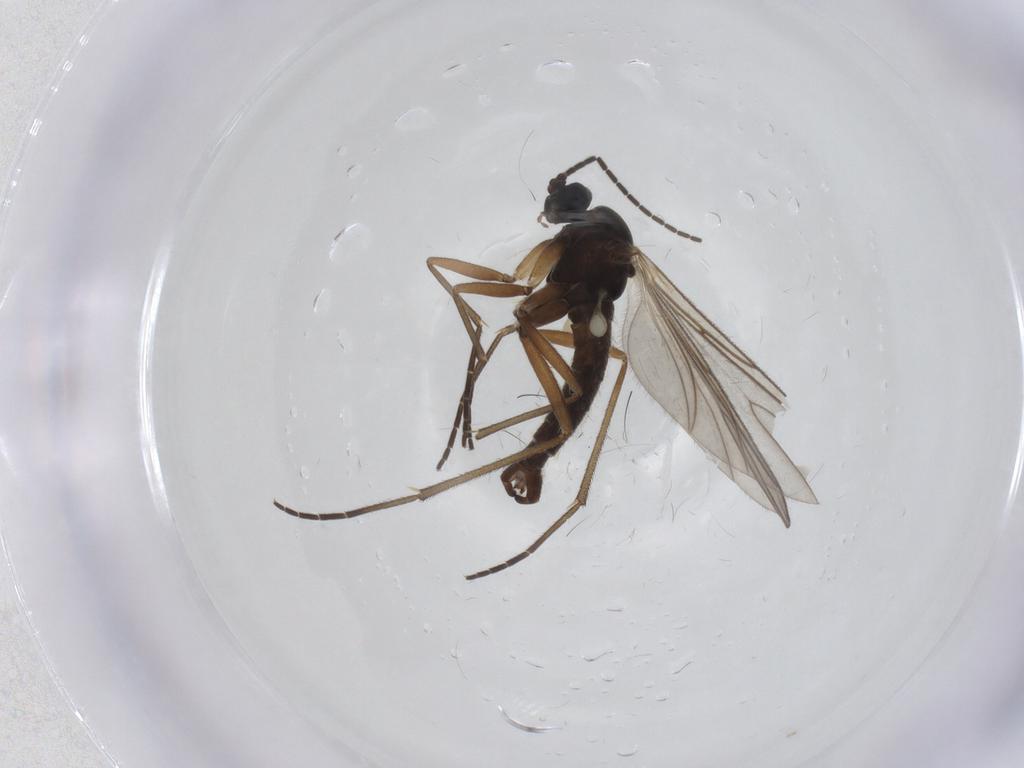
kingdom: Animalia
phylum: Arthropoda
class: Insecta
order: Diptera
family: Sciaridae
